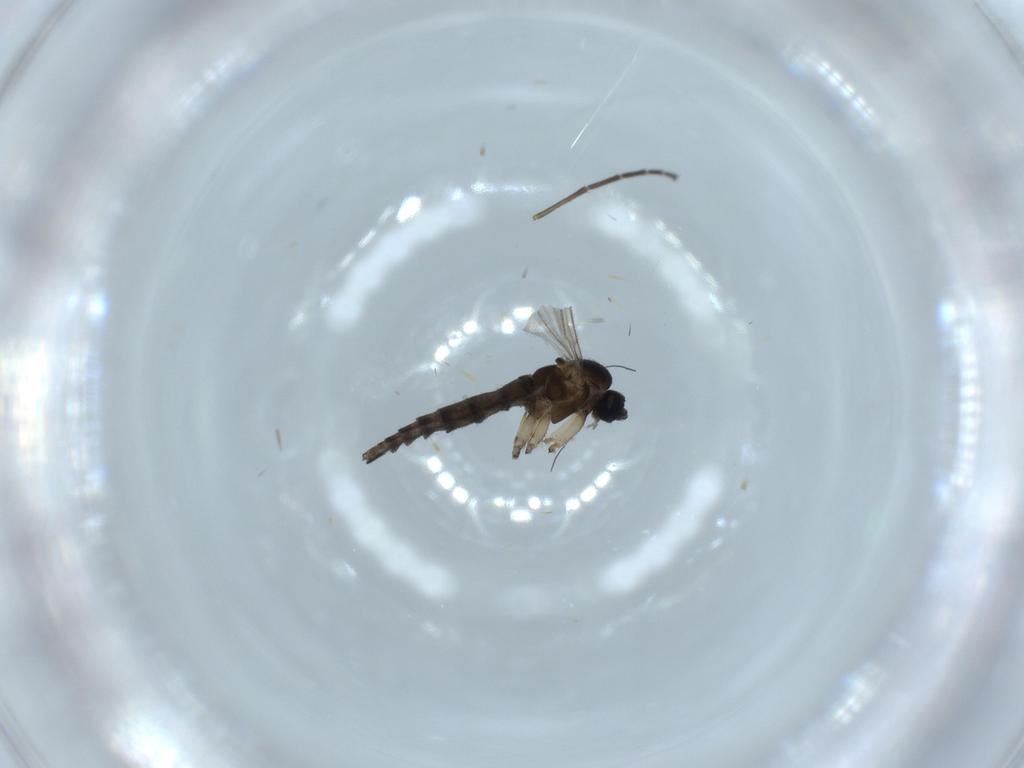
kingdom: Animalia
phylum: Arthropoda
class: Insecta
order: Diptera
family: Sciaridae
